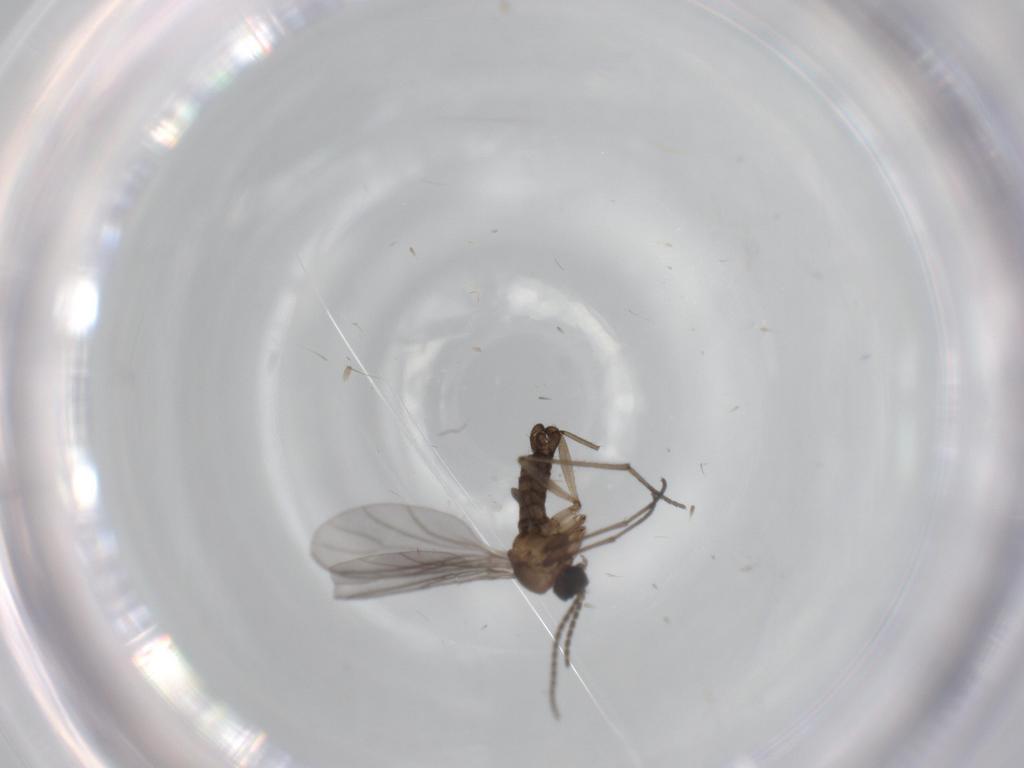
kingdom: Animalia
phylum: Arthropoda
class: Insecta
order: Diptera
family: Sciaridae
